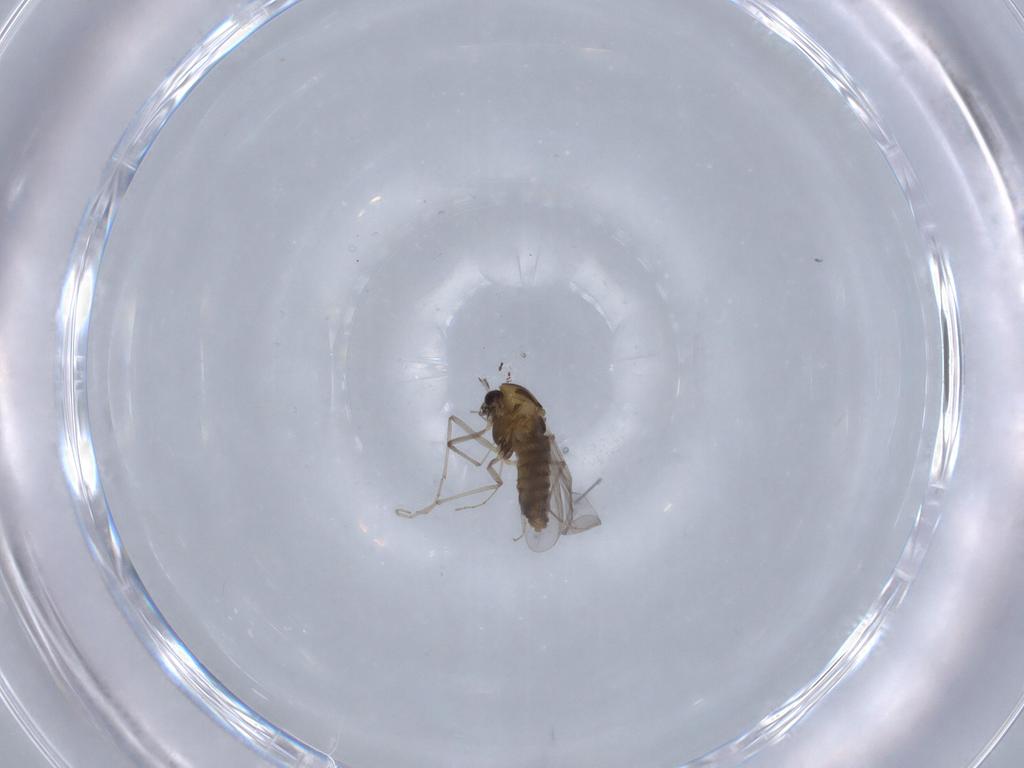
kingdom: Animalia
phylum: Arthropoda
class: Insecta
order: Diptera
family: Chironomidae
